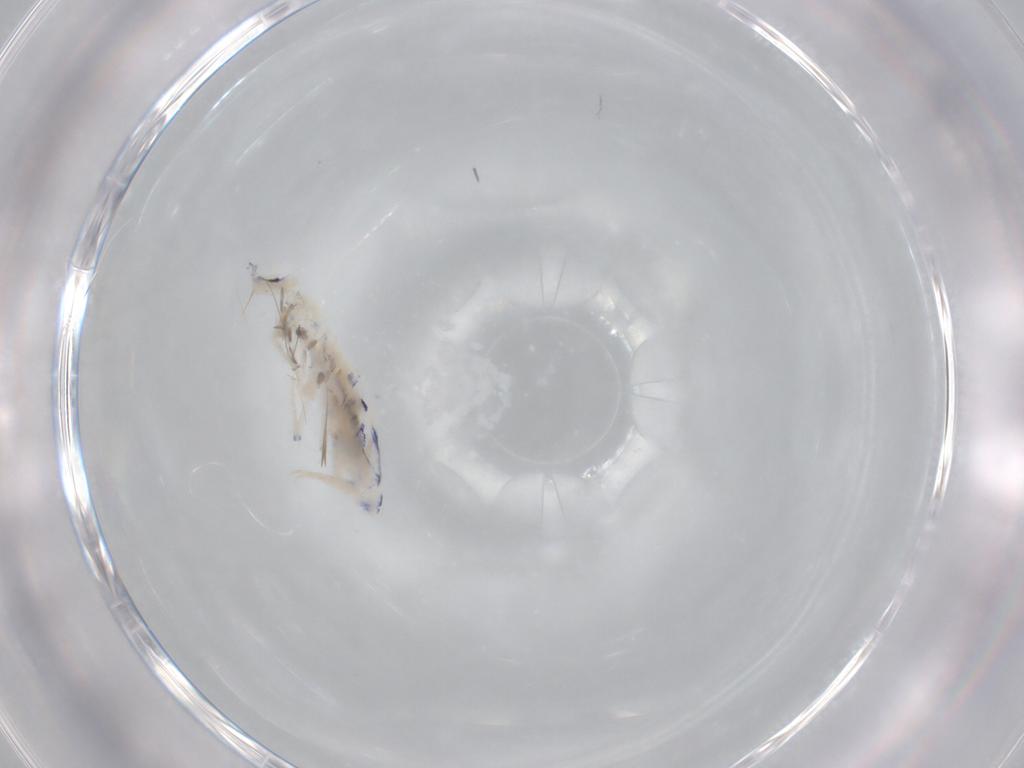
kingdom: Animalia
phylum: Arthropoda
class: Collembola
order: Entomobryomorpha
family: Entomobryidae
